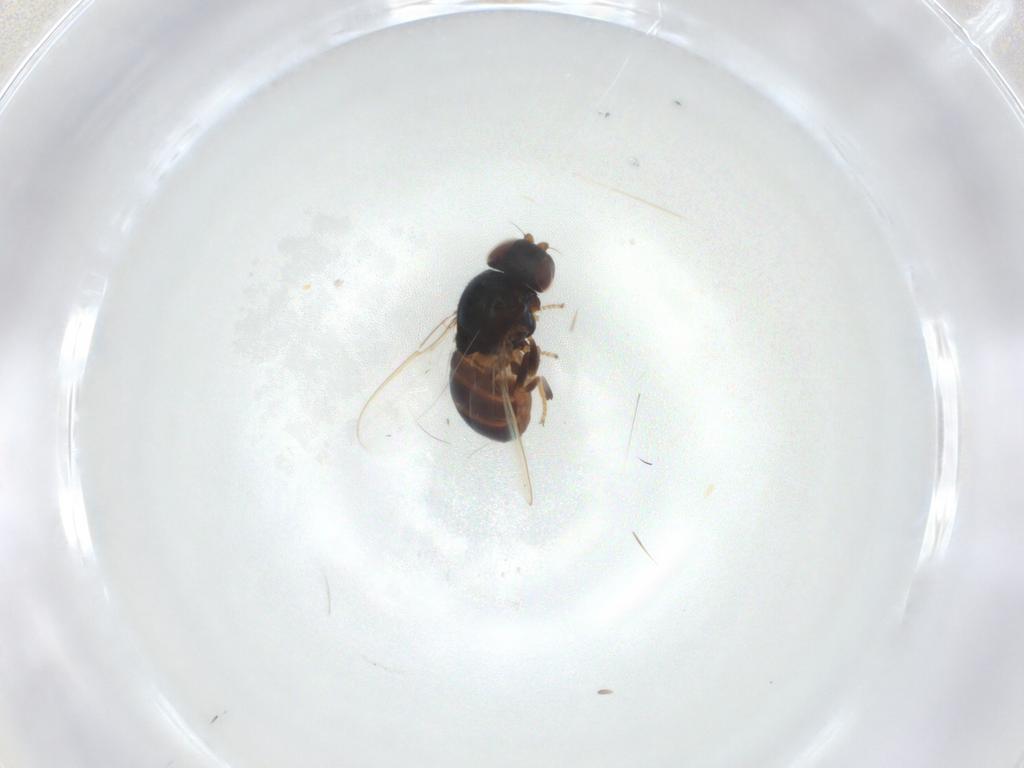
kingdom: Animalia
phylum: Arthropoda
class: Insecta
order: Diptera
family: Chloropidae
